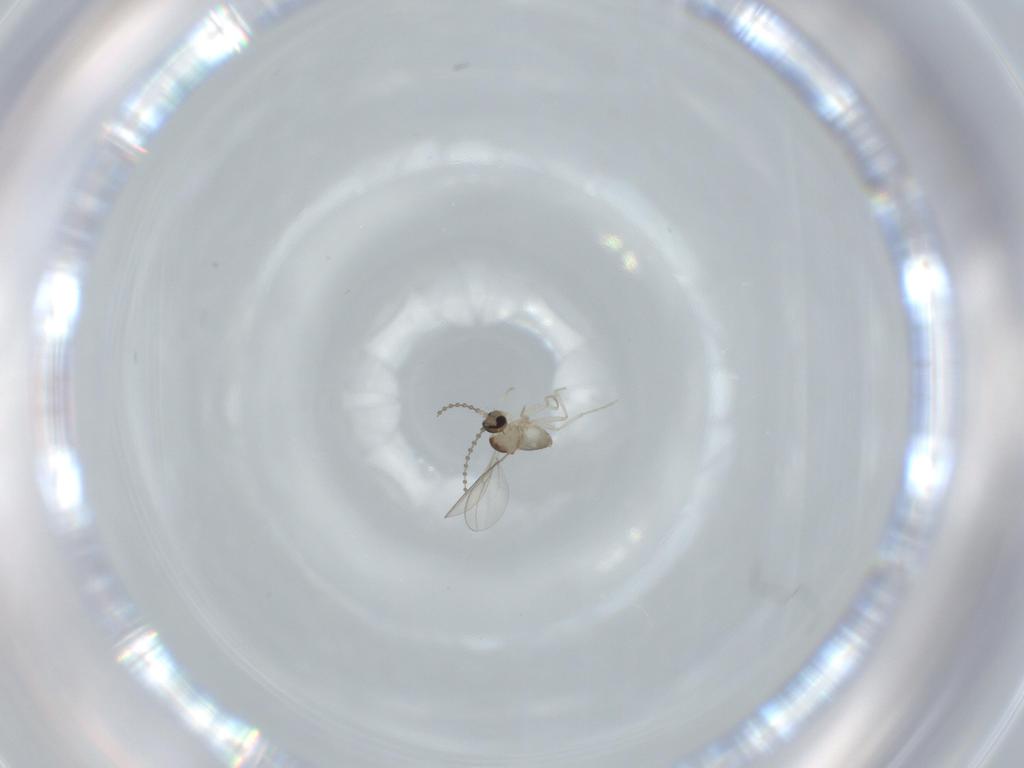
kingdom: Animalia
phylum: Arthropoda
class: Insecta
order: Diptera
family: Cecidomyiidae
